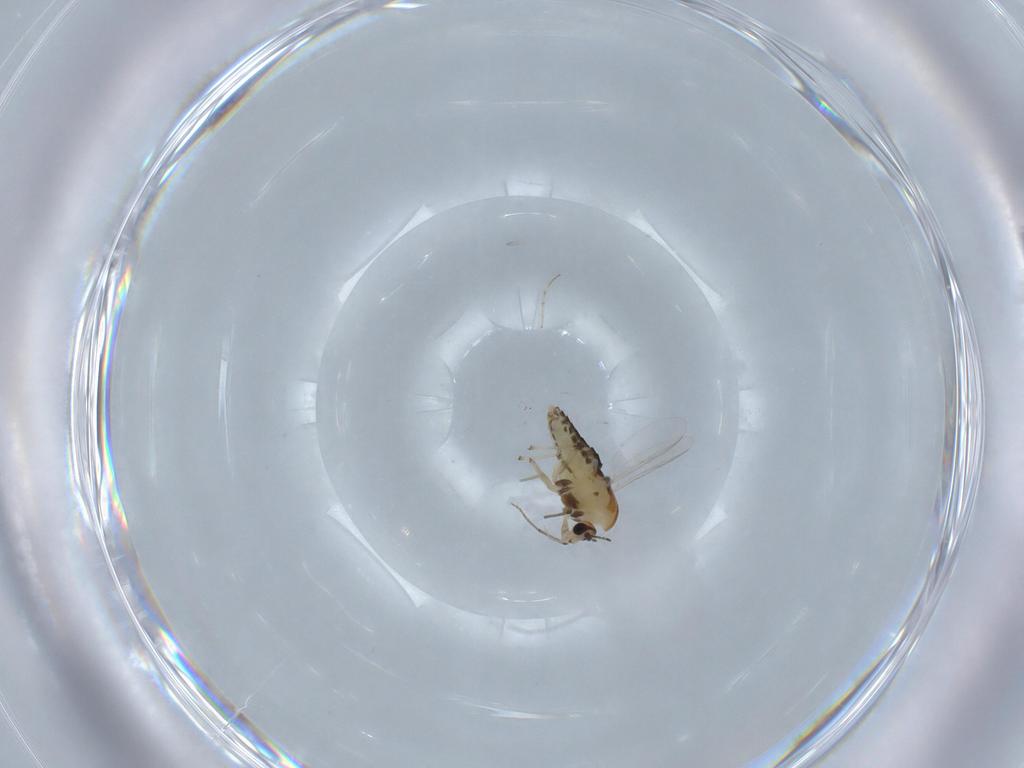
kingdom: Animalia
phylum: Arthropoda
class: Insecta
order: Diptera
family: Chironomidae
